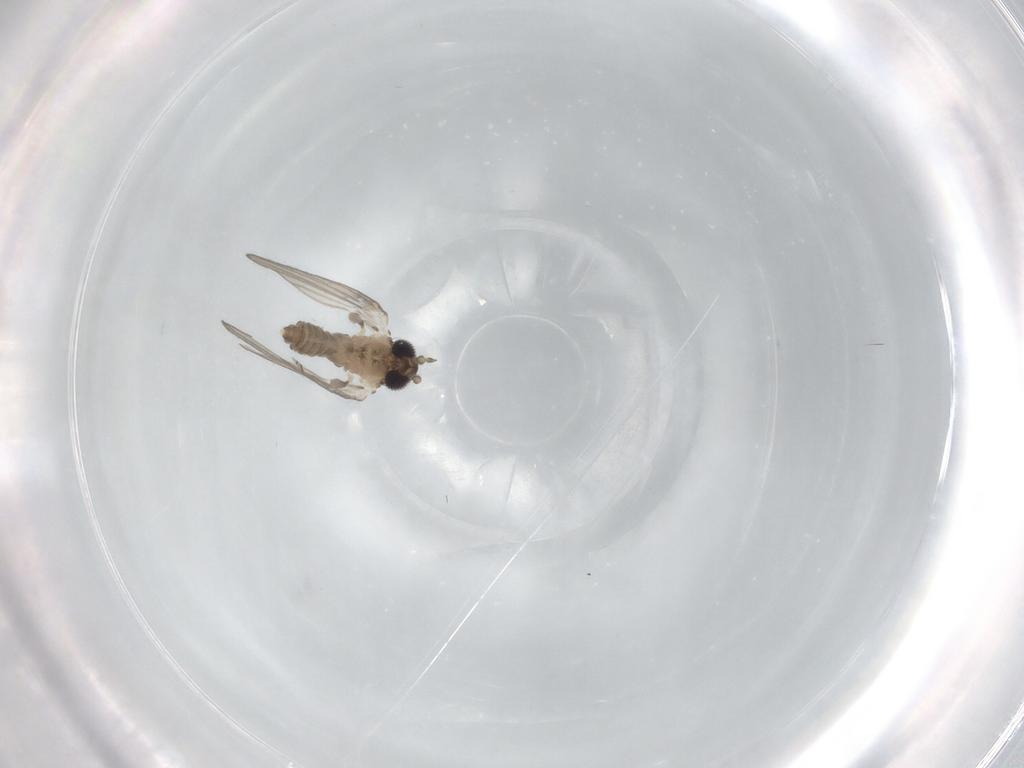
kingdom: Animalia
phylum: Arthropoda
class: Insecta
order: Diptera
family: Psychodidae
